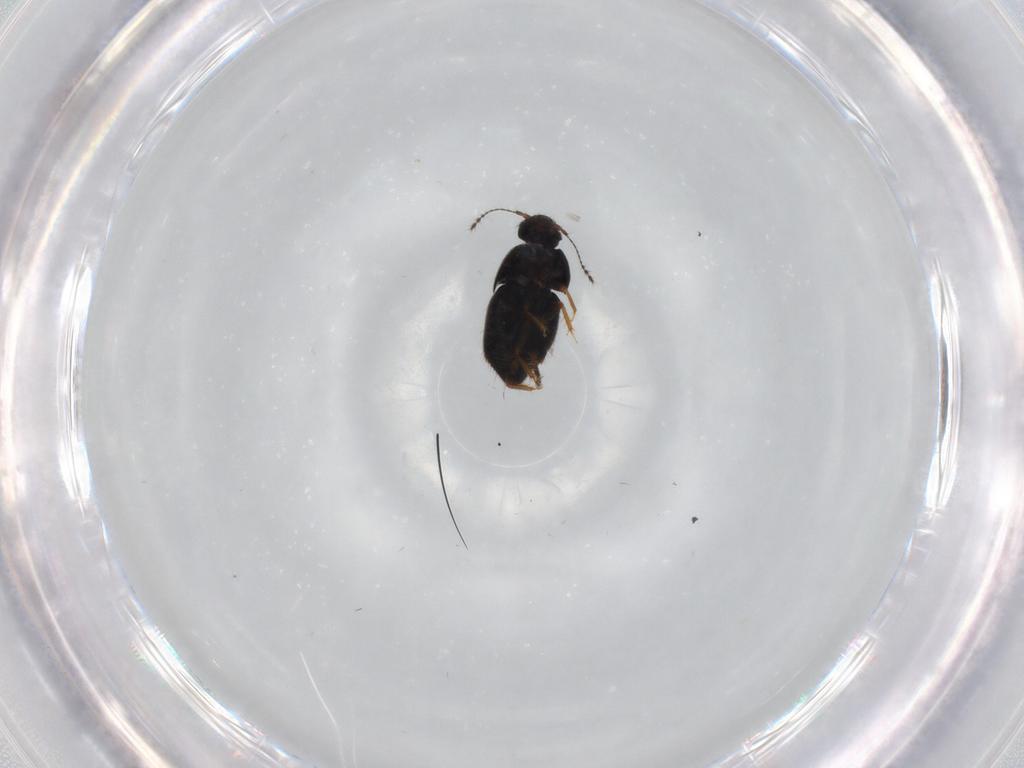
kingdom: Animalia
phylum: Arthropoda
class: Insecta
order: Coleoptera
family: Ptiliidae
